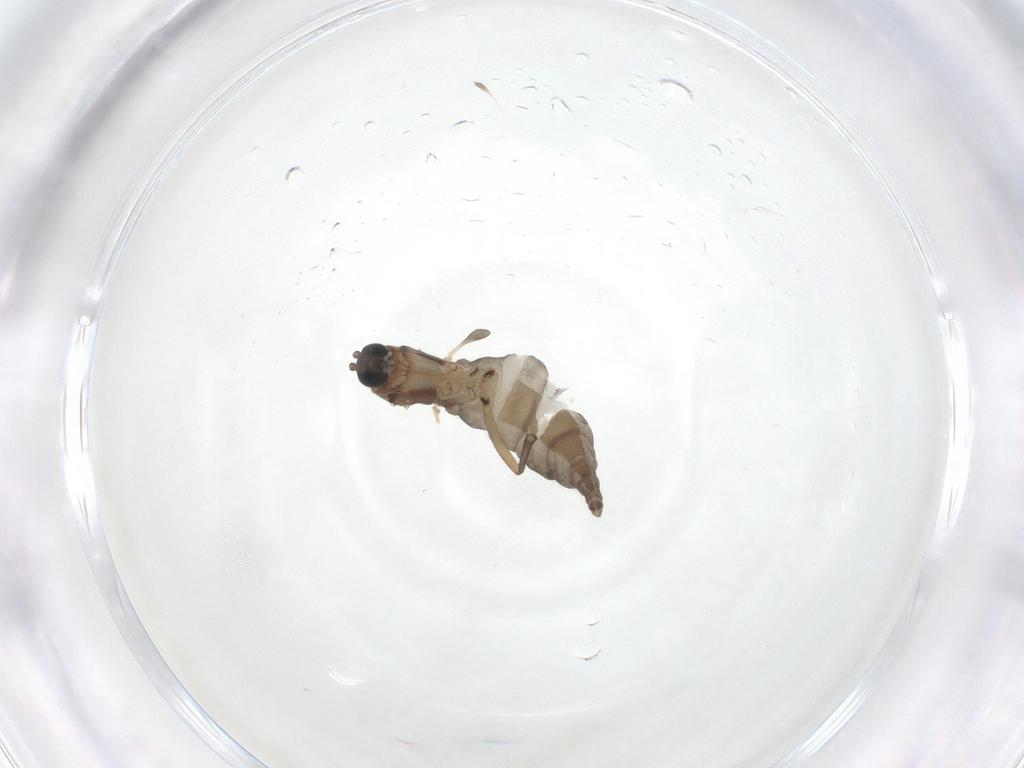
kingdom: Animalia
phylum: Arthropoda
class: Insecta
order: Diptera
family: Sciaridae
